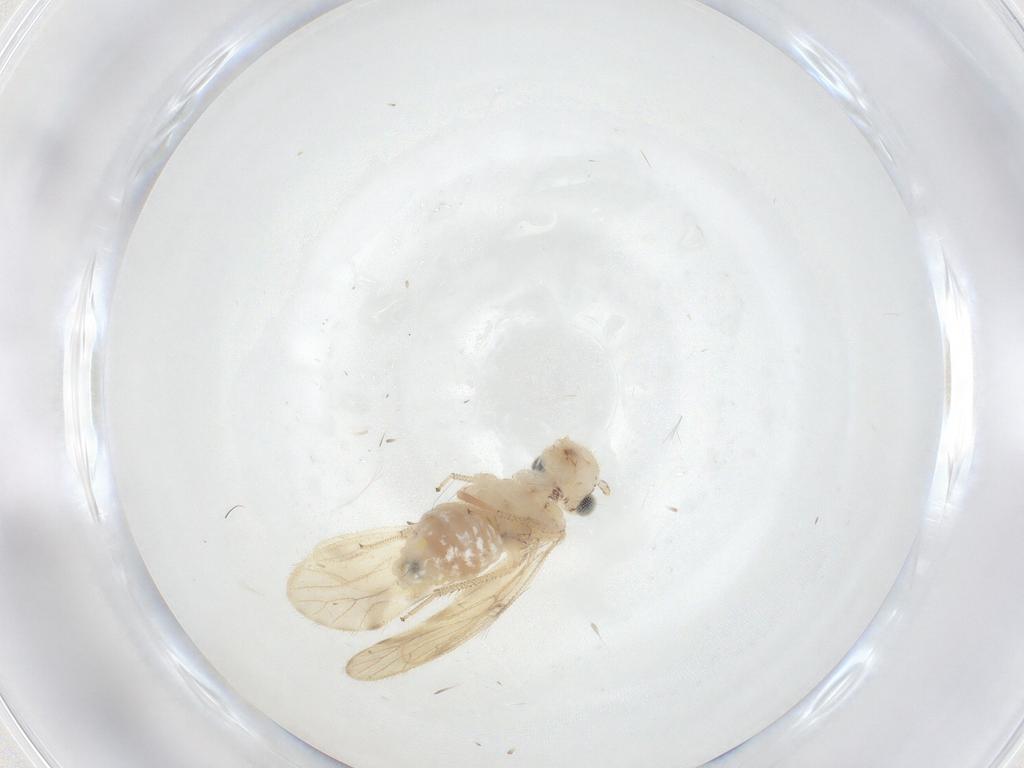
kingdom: Animalia
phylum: Arthropoda
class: Insecta
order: Psocodea
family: Pseudocaeciliidae
